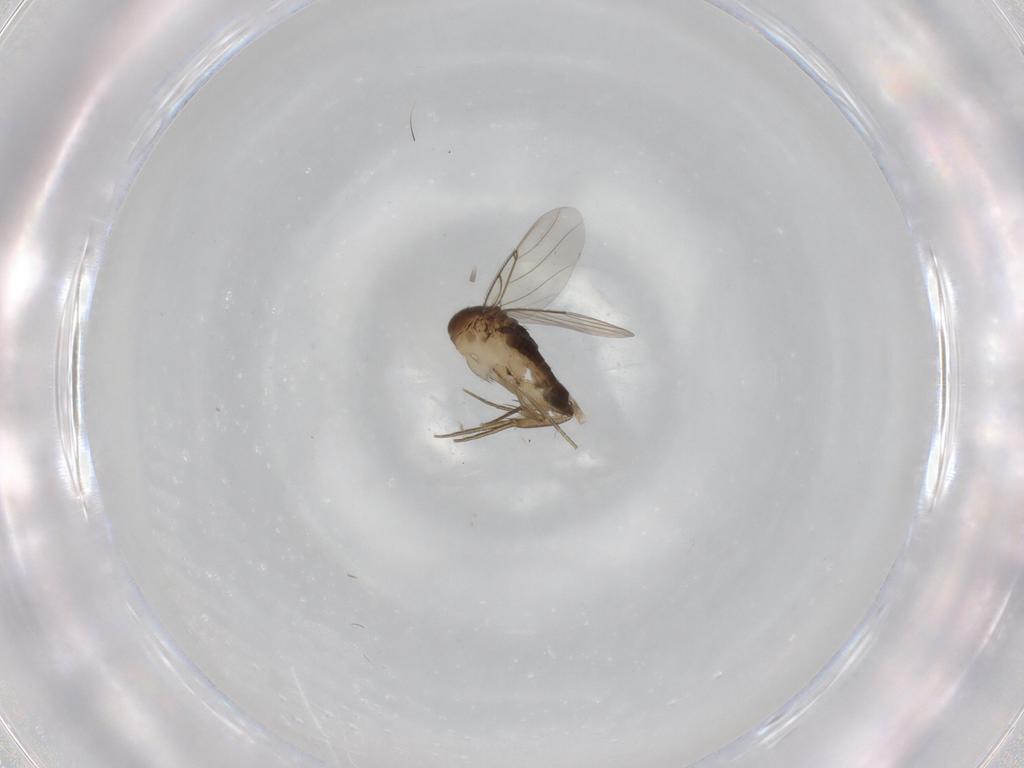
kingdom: Animalia
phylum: Arthropoda
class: Insecta
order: Diptera
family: Phoridae
